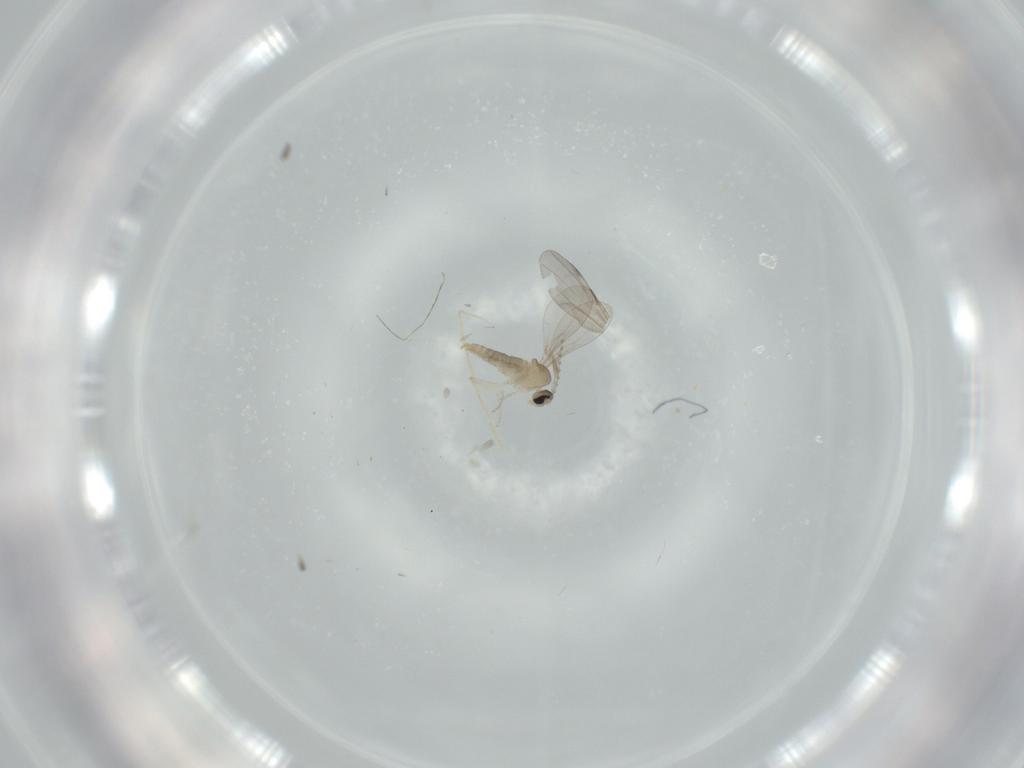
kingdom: Animalia
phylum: Arthropoda
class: Insecta
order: Diptera
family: Cecidomyiidae
